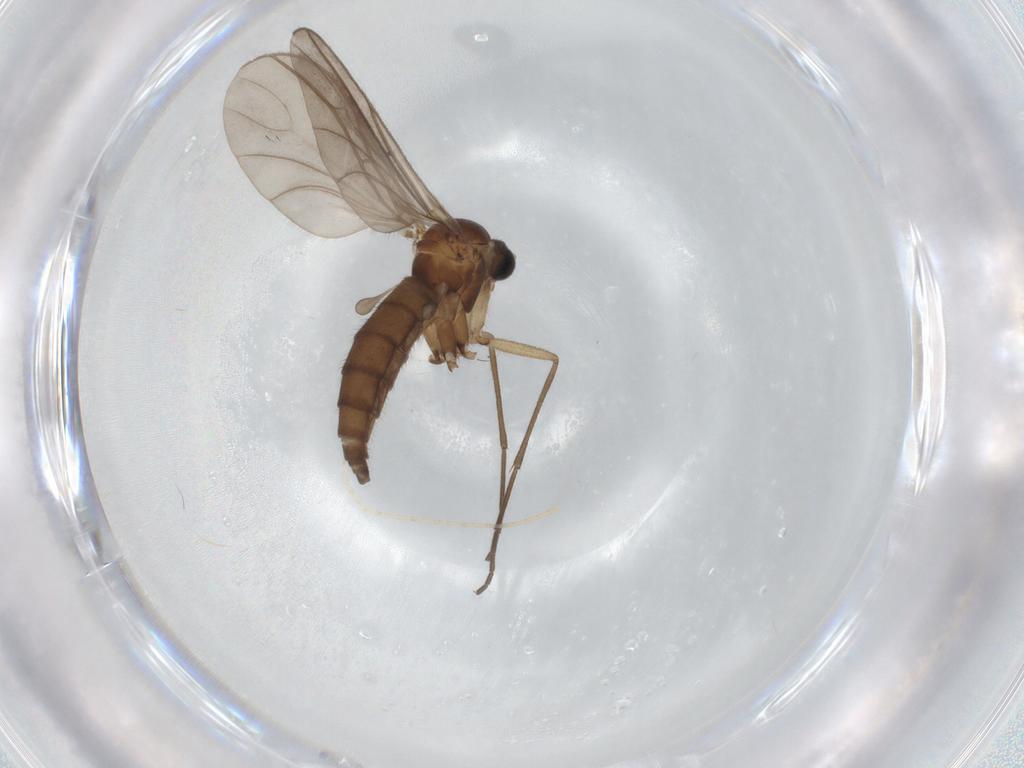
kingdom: Animalia
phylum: Arthropoda
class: Insecta
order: Diptera
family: Sciaridae
